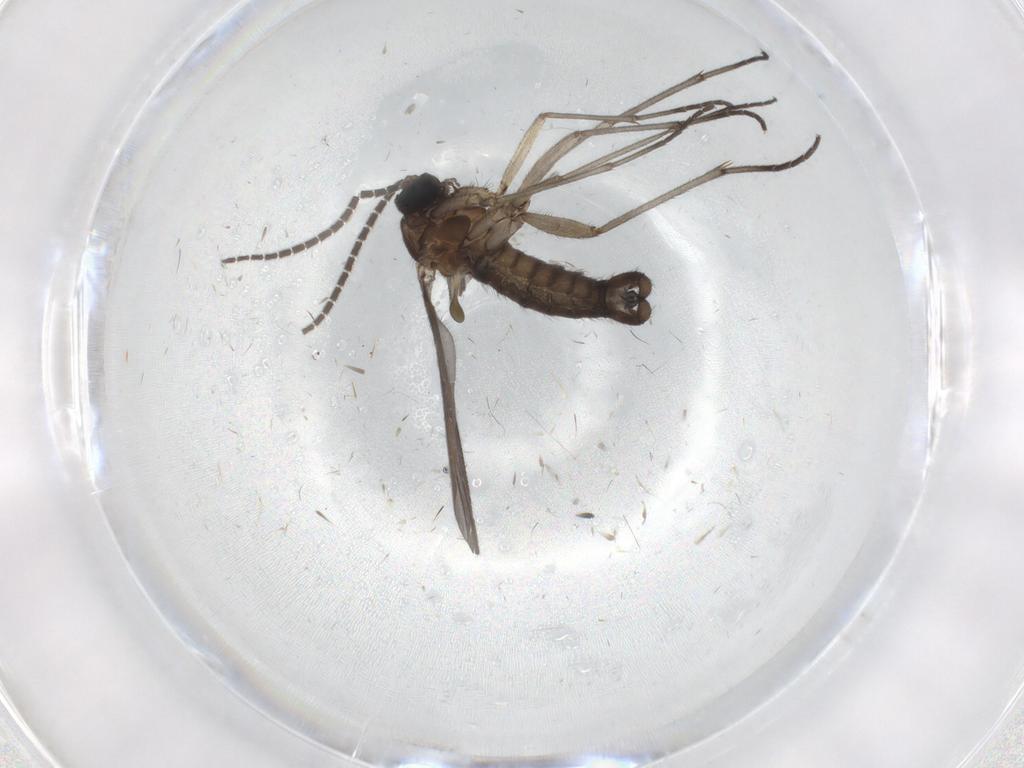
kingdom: Animalia
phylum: Arthropoda
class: Insecta
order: Diptera
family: Sciaridae
